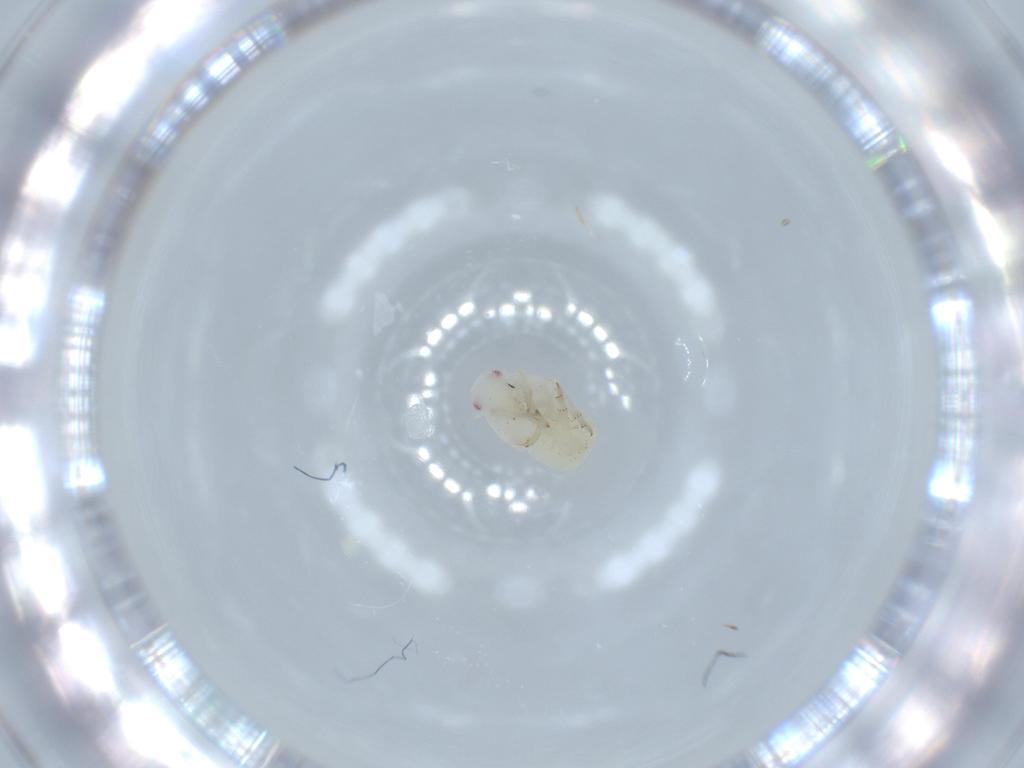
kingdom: Animalia
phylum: Arthropoda
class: Insecta
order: Hemiptera
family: Flatidae
